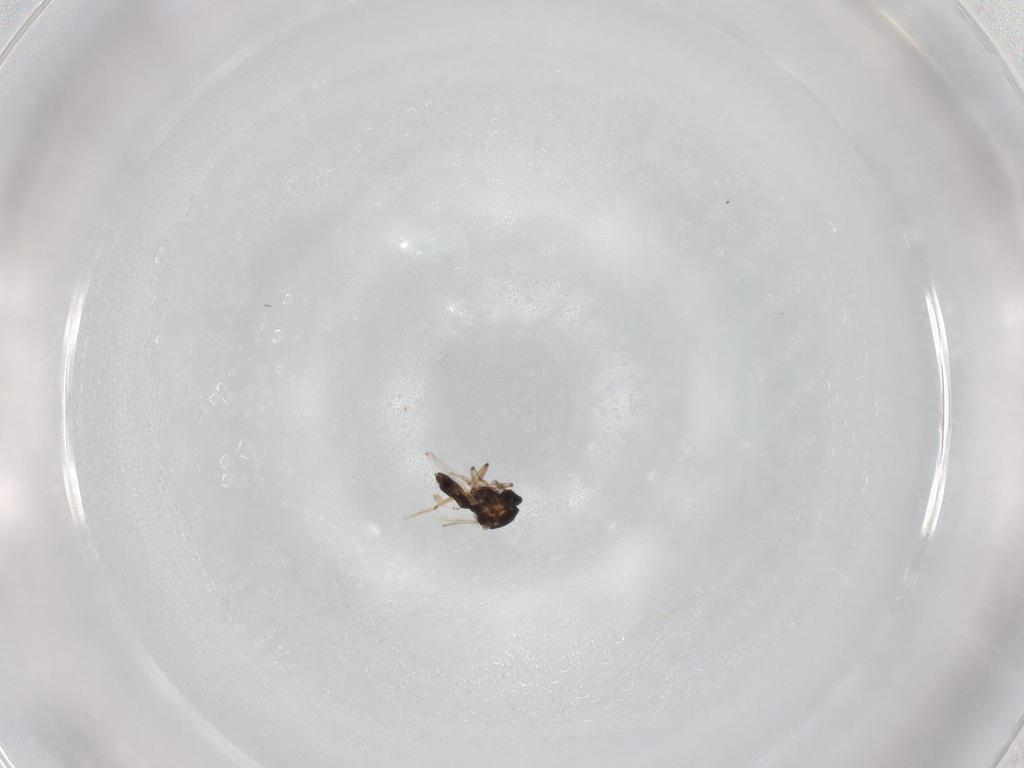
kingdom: Animalia
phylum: Arthropoda
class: Insecta
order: Diptera
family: Ceratopogonidae
